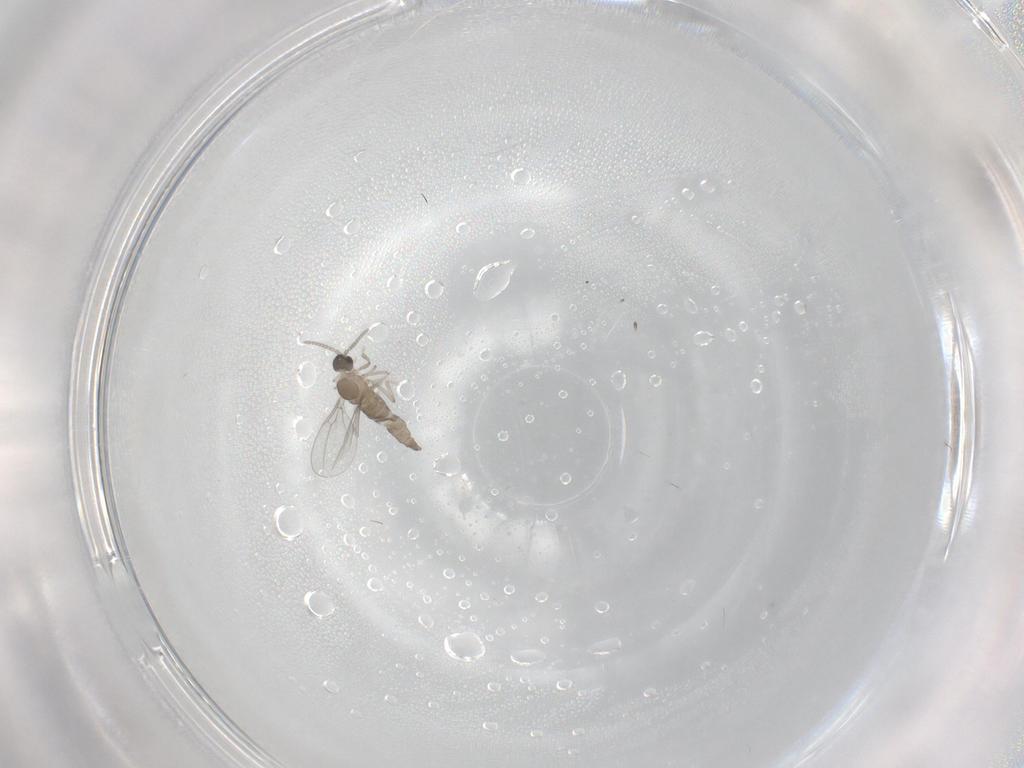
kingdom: Animalia
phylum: Arthropoda
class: Insecta
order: Diptera
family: Cecidomyiidae
